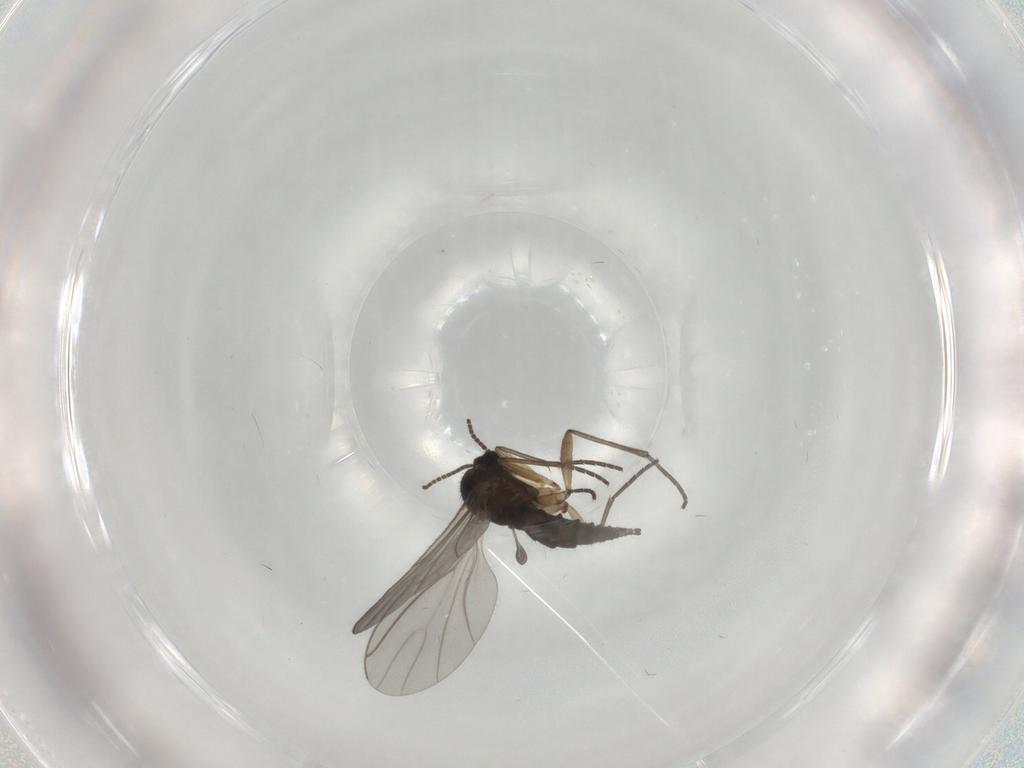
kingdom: Animalia
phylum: Arthropoda
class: Insecta
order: Diptera
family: Sciaridae
